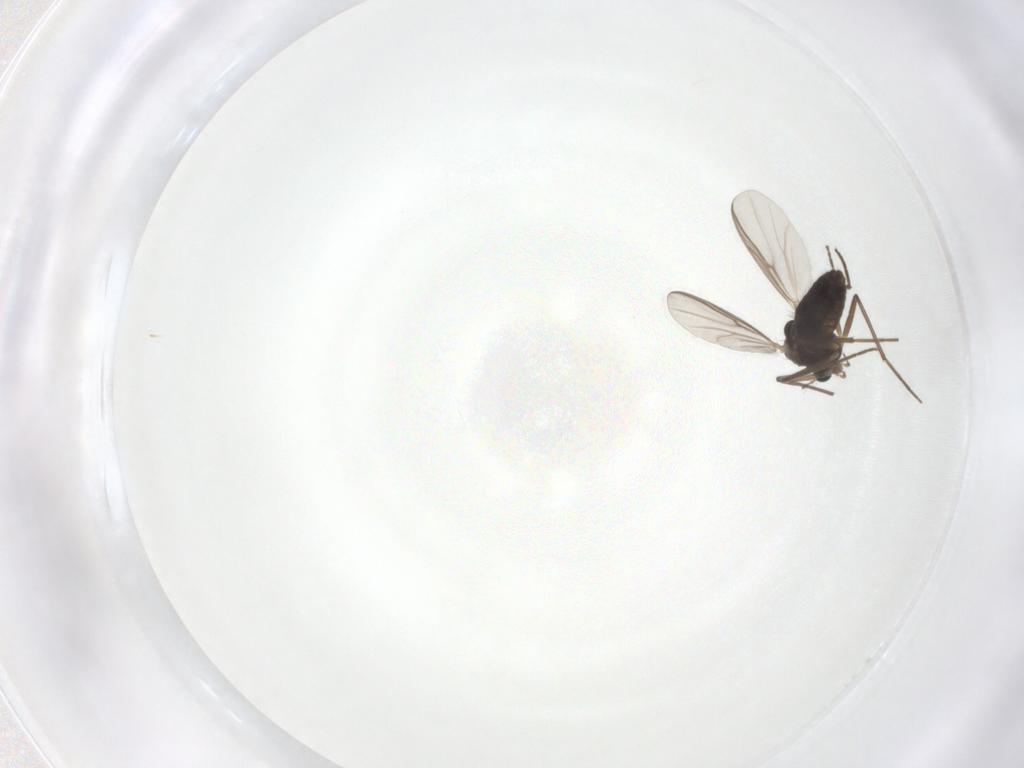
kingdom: Animalia
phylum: Arthropoda
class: Insecta
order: Diptera
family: Chironomidae
